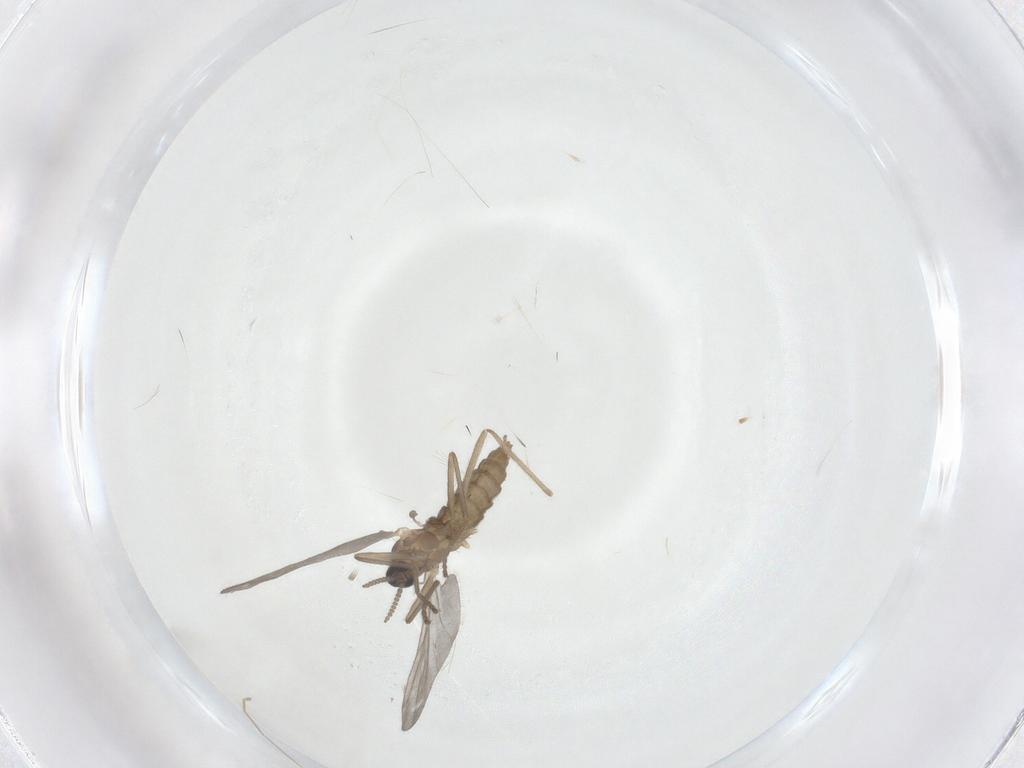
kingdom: Animalia
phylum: Arthropoda
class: Insecta
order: Diptera
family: Cecidomyiidae
